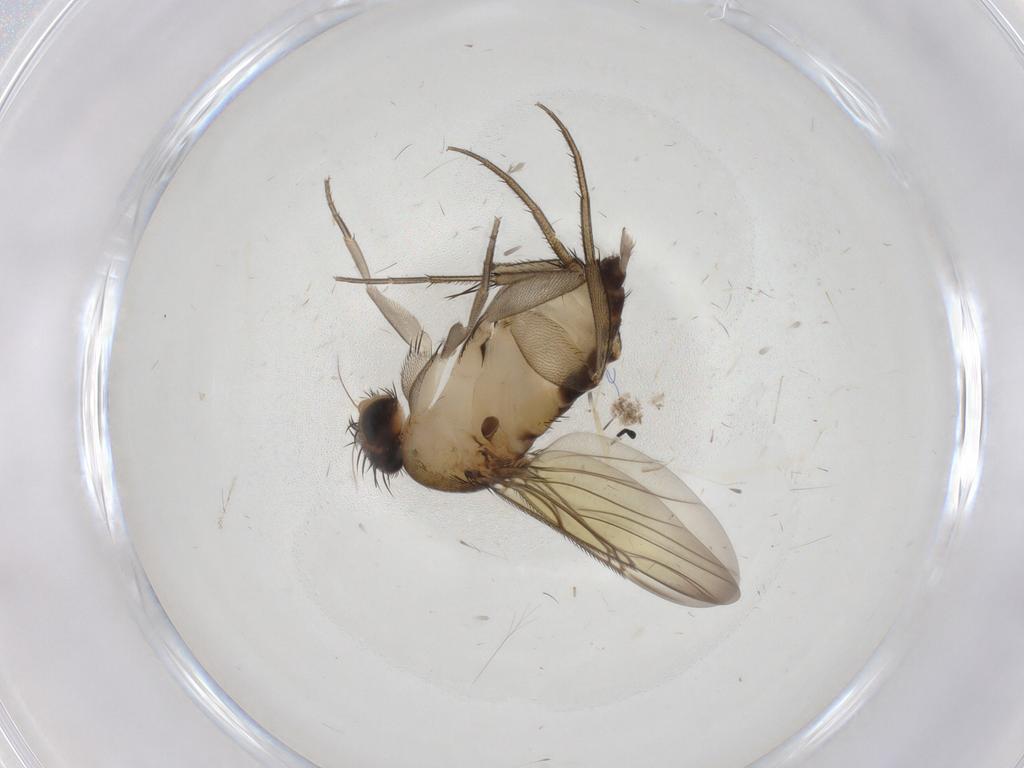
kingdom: Animalia
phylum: Arthropoda
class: Insecta
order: Diptera
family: Phoridae
